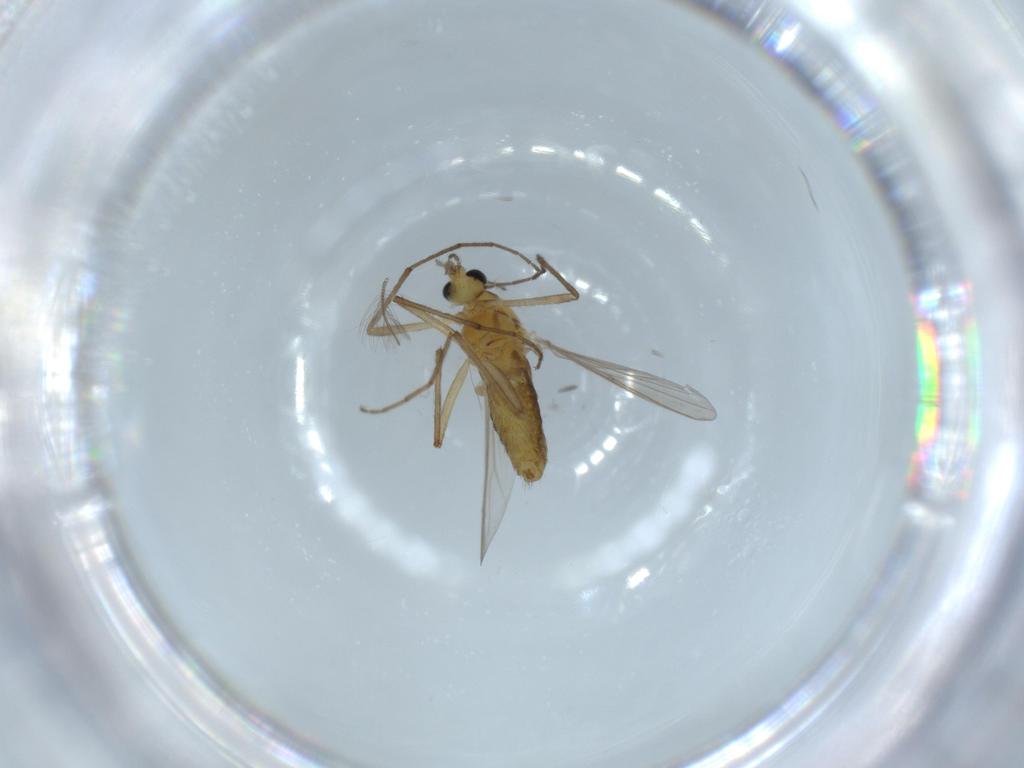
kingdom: Animalia
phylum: Arthropoda
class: Insecta
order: Diptera
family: Chironomidae
